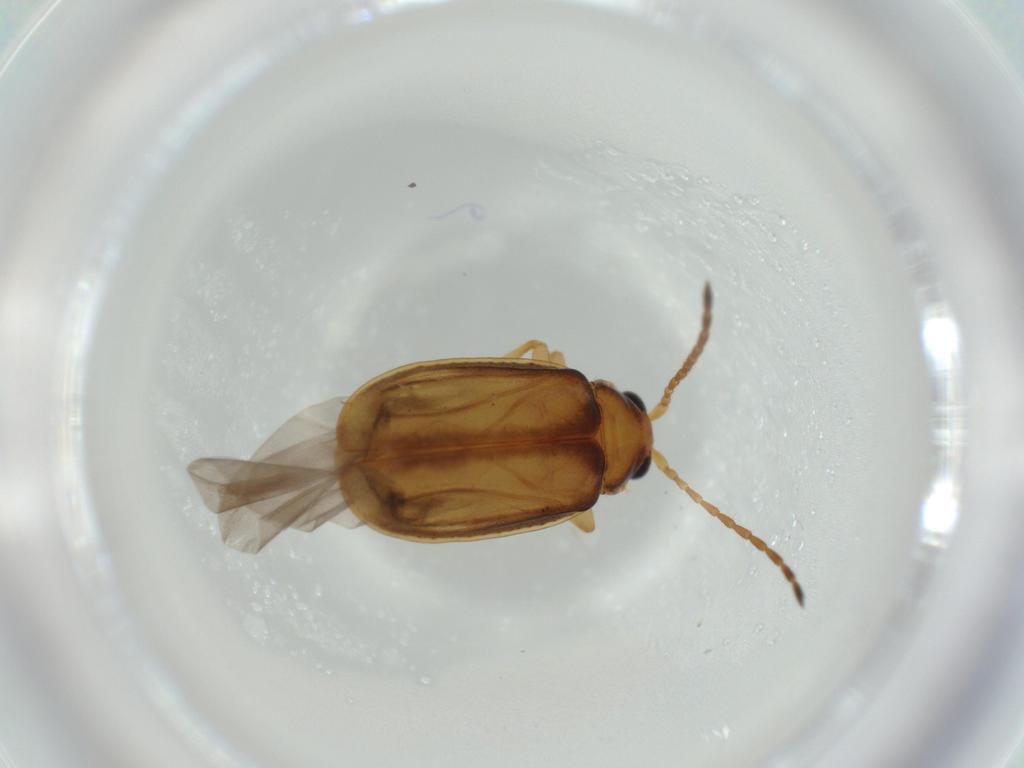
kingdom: Animalia
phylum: Arthropoda
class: Insecta
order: Coleoptera
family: Chrysomelidae
